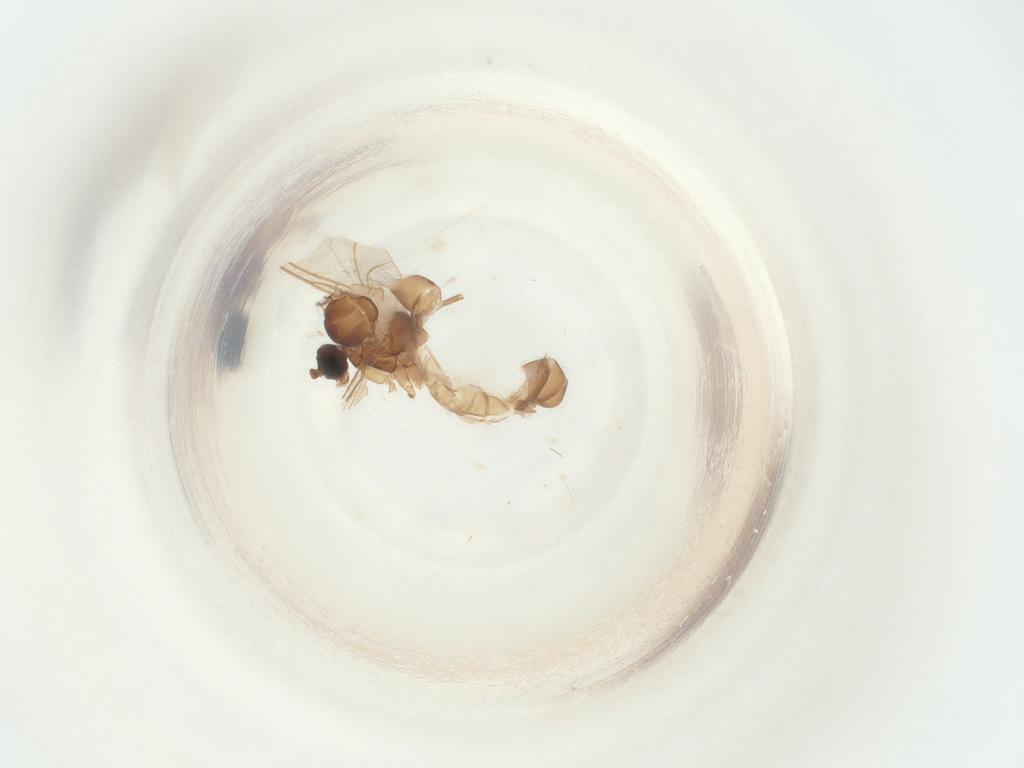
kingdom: Animalia
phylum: Arthropoda
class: Insecta
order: Diptera
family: Sciaridae
